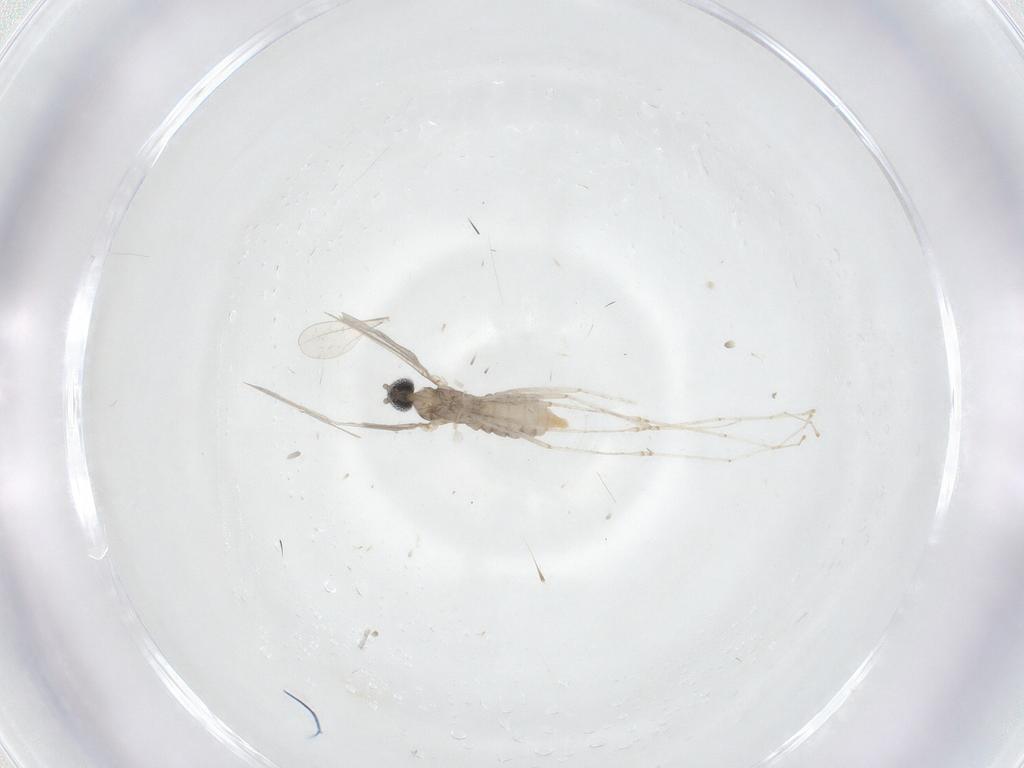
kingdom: Animalia
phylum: Arthropoda
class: Insecta
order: Diptera
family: Cecidomyiidae
